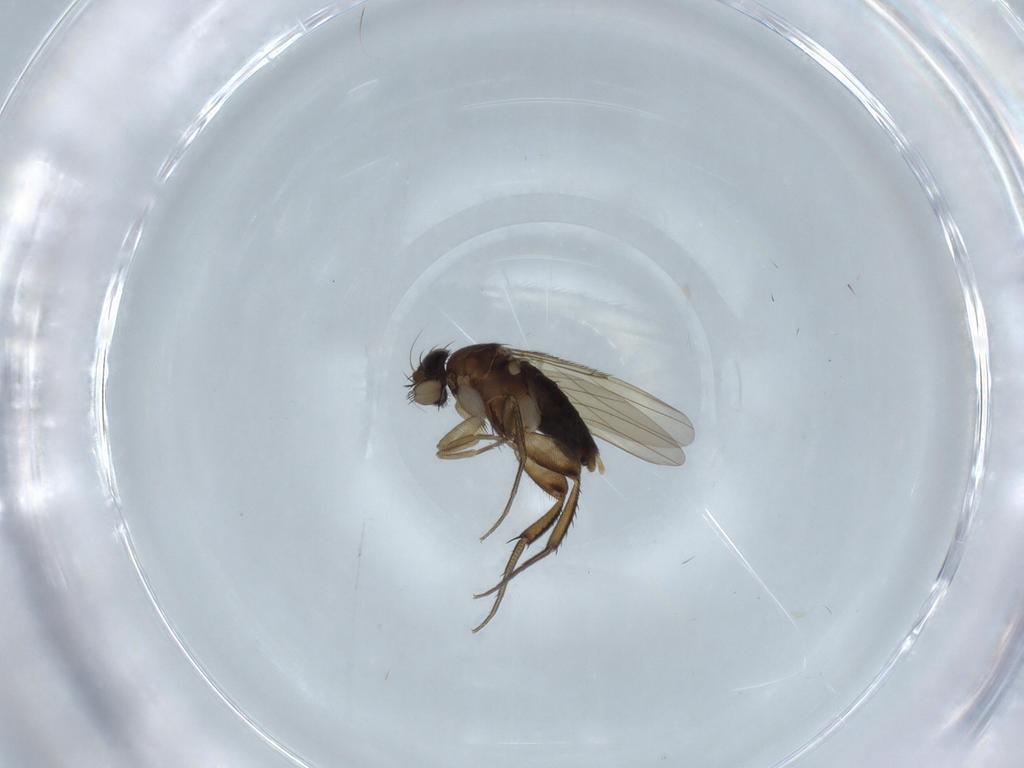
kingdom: Animalia
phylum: Arthropoda
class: Insecta
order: Diptera
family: Phoridae
